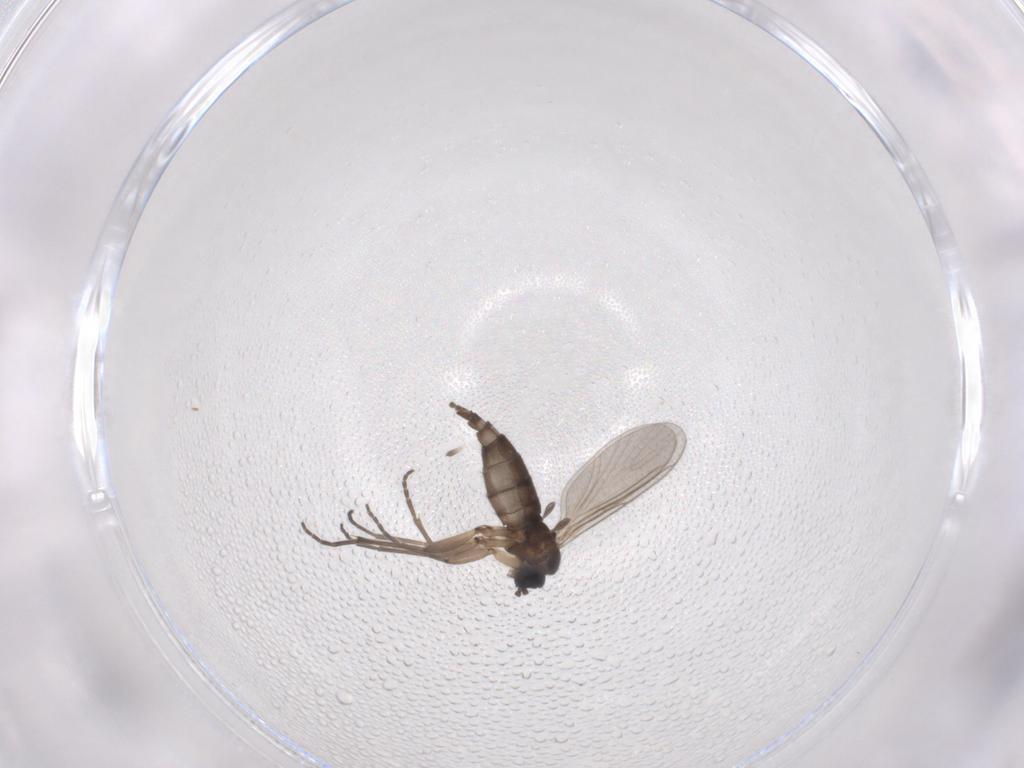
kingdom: Animalia
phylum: Arthropoda
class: Insecta
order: Diptera
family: Sciaridae
